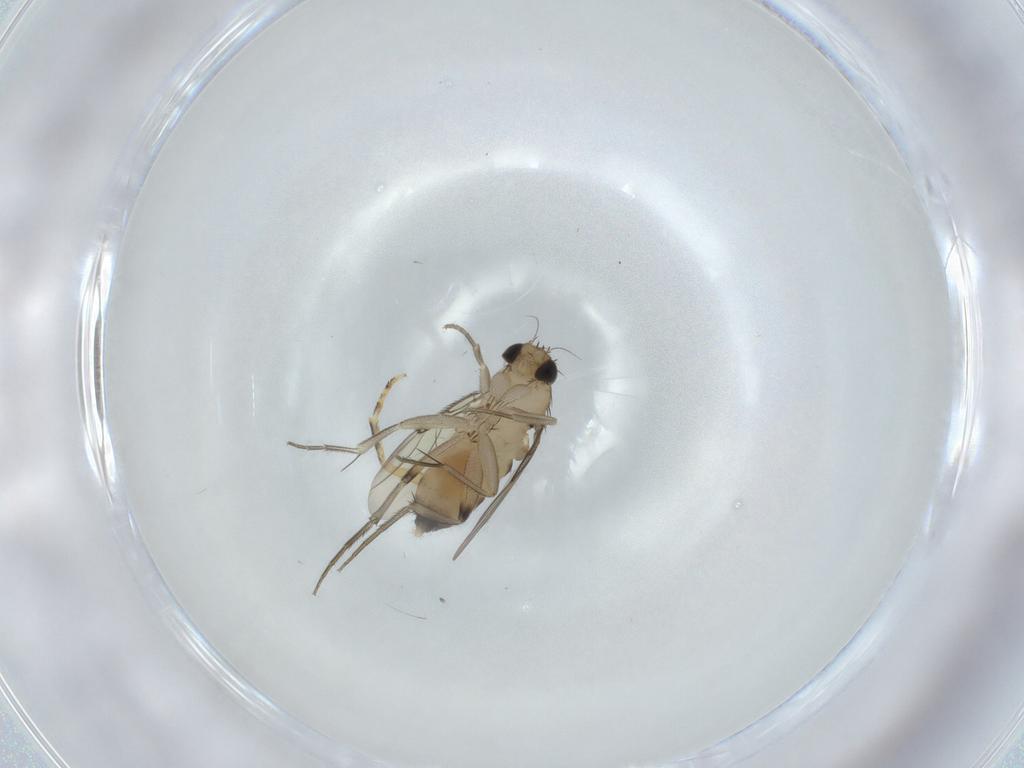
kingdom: Animalia
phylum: Arthropoda
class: Insecta
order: Diptera
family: Phoridae
